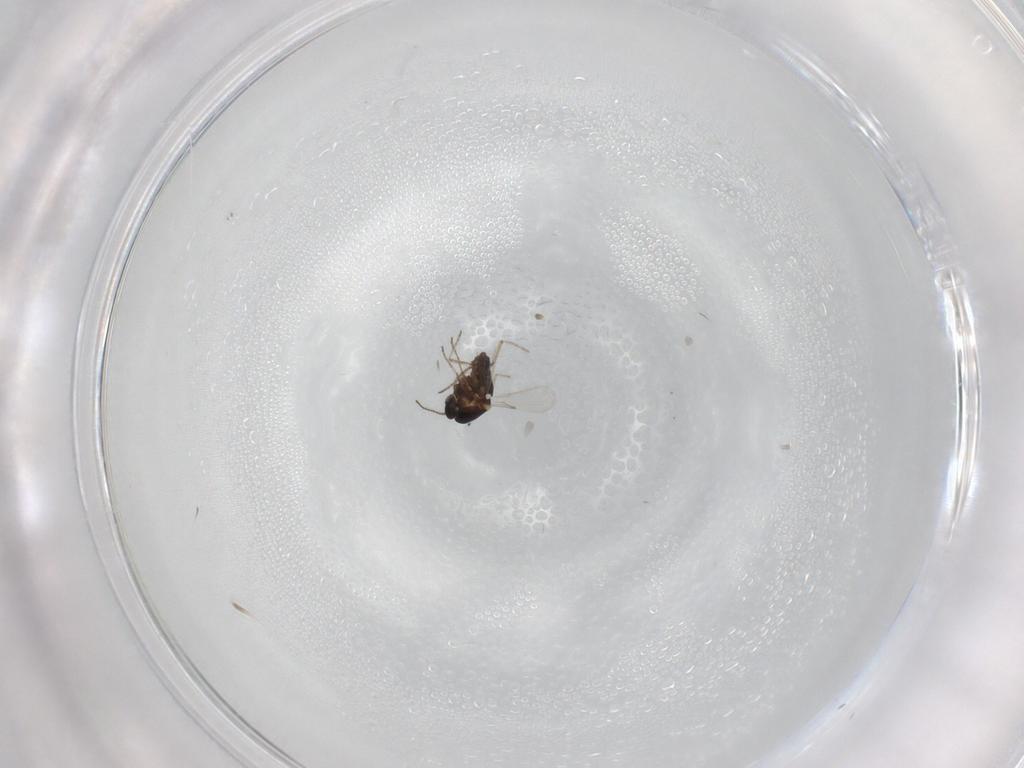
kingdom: Animalia
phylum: Arthropoda
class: Insecta
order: Diptera
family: Ceratopogonidae
